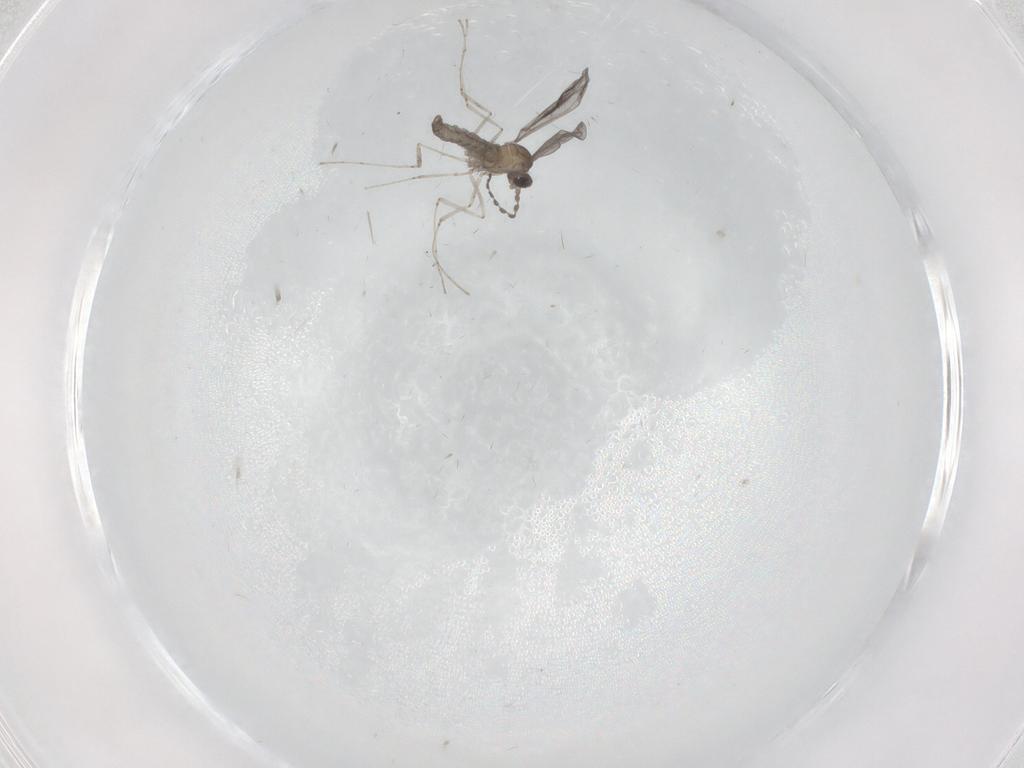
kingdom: Animalia
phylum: Arthropoda
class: Insecta
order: Diptera
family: Cecidomyiidae
